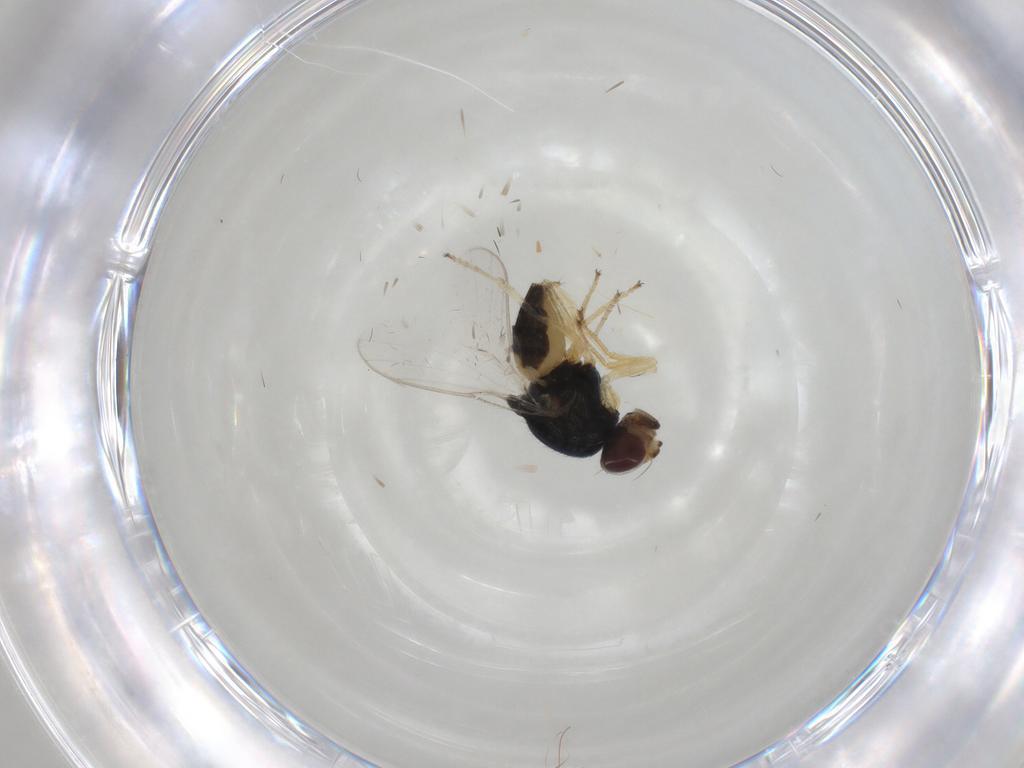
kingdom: Animalia
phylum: Arthropoda
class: Insecta
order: Diptera
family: Chloropidae
